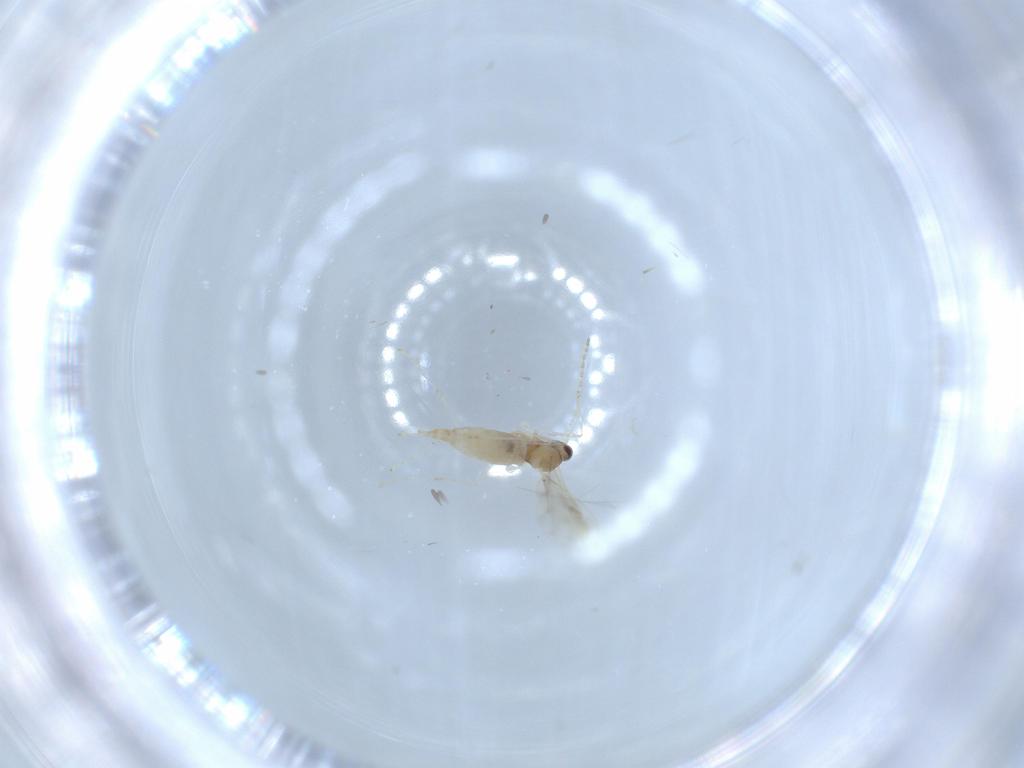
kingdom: Animalia
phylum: Arthropoda
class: Insecta
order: Diptera
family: Cecidomyiidae
